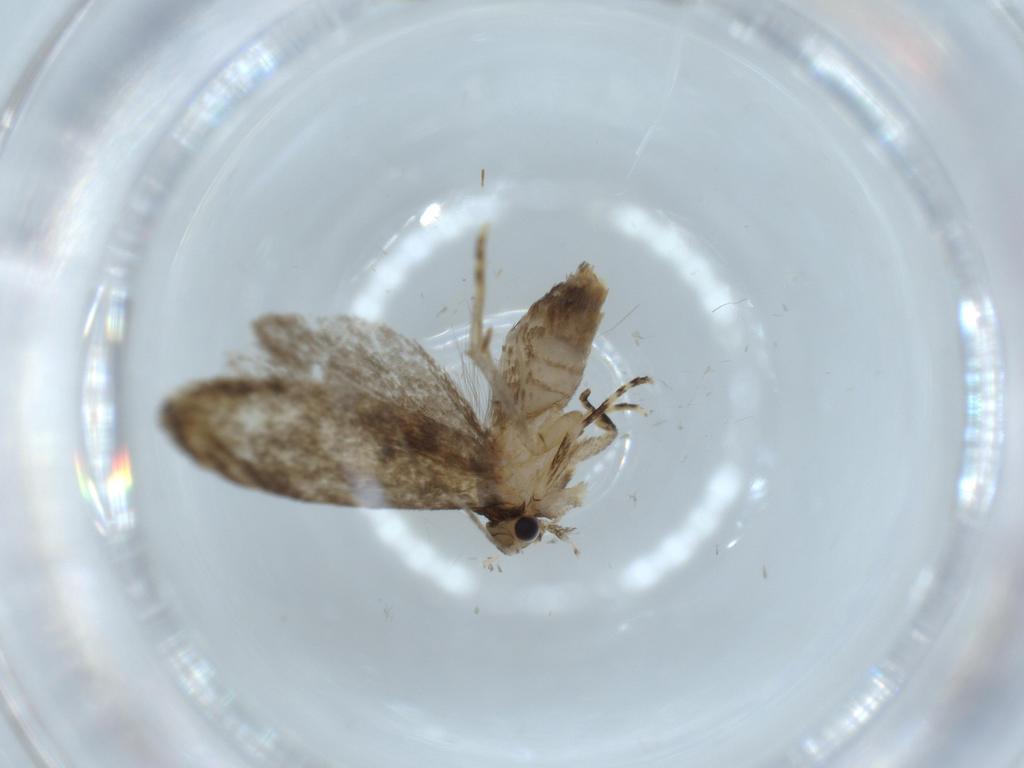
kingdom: Animalia
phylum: Arthropoda
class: Insecta
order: Lepidoptera
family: Tineidae
